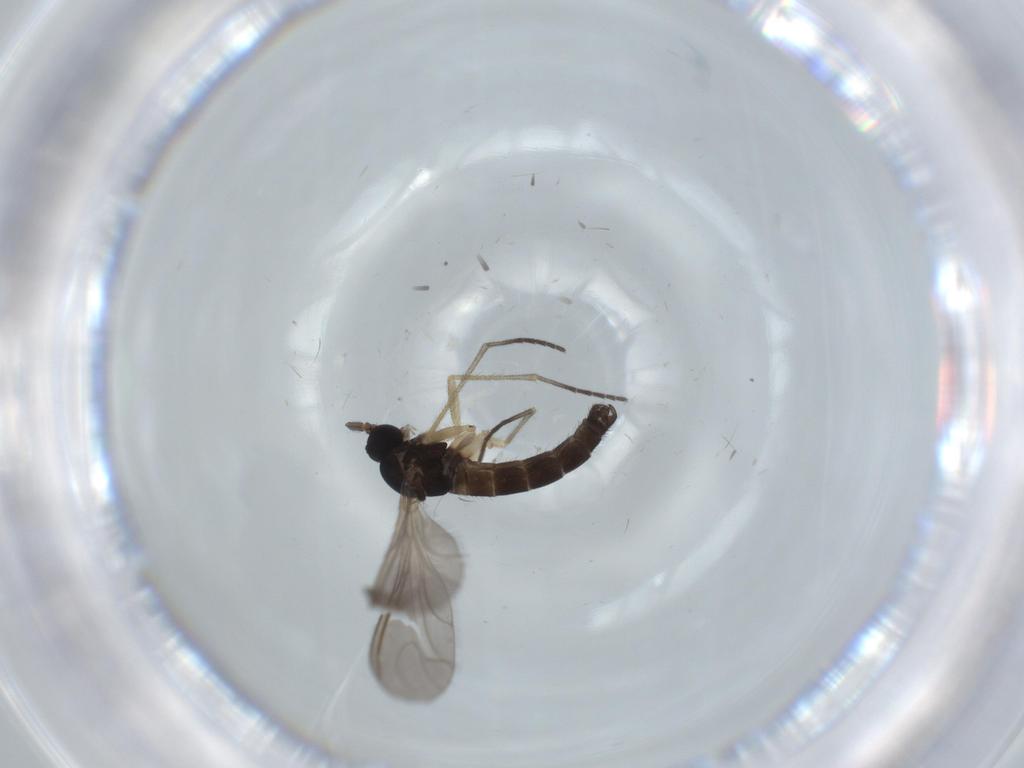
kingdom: Animalia
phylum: Arthropoda
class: Insecta
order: Diptera
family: Sciaridae
